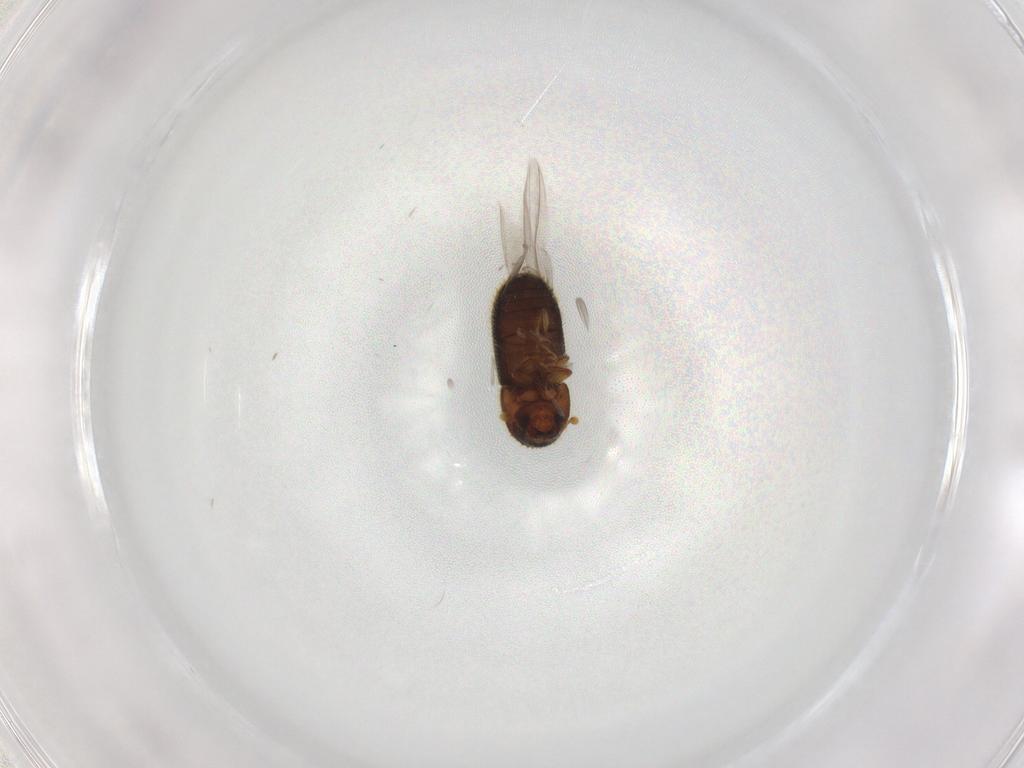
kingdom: Animalia
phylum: Arthropoda
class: Insecta
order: Coleoptera
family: Curculionidae
